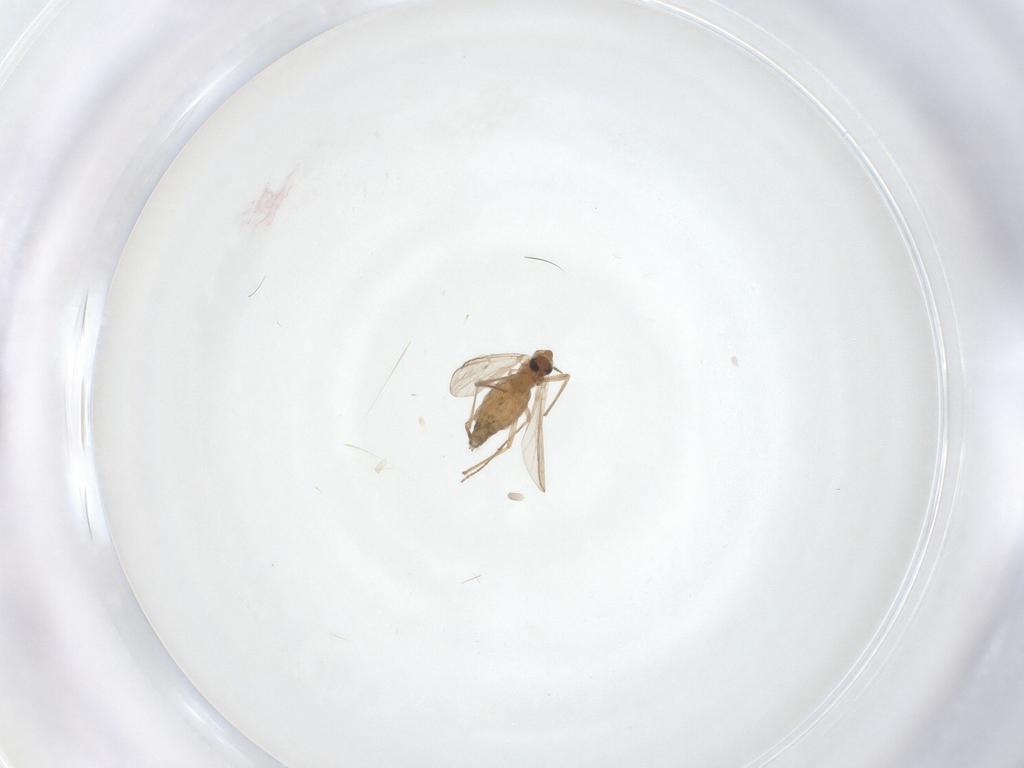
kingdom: Animalia
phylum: Arthropoda
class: Insecta
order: Diptera
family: Chironomidae
